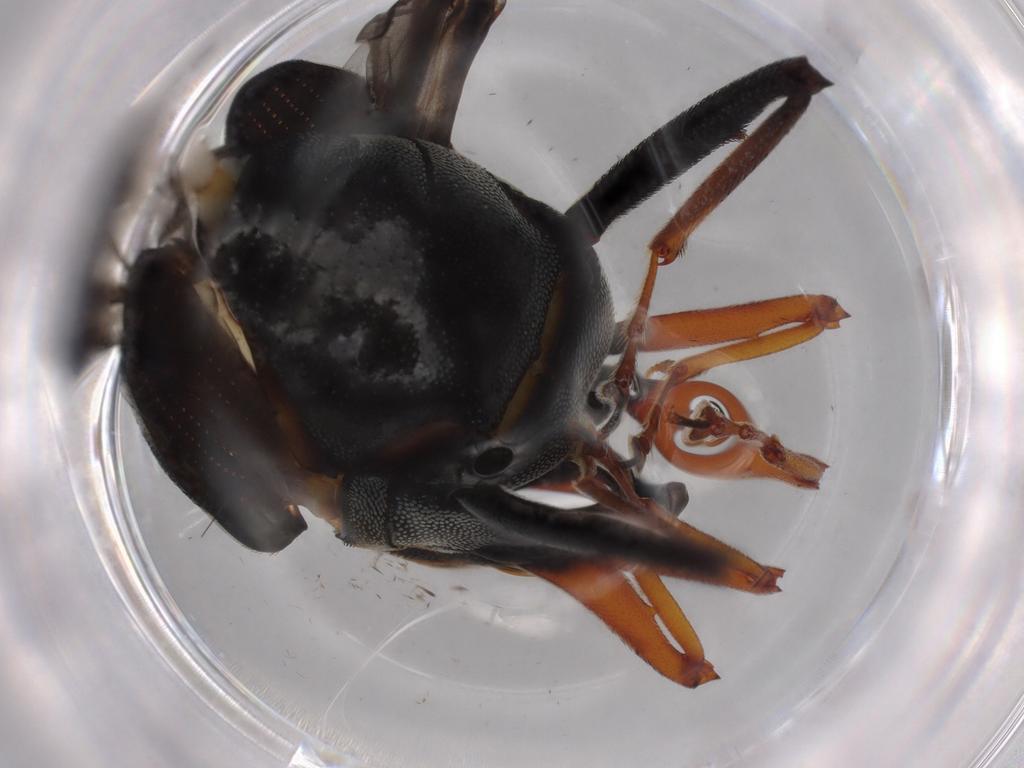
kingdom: Animalia
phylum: Arthropoda
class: Insecta
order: Coleoptera
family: Curculionidae
